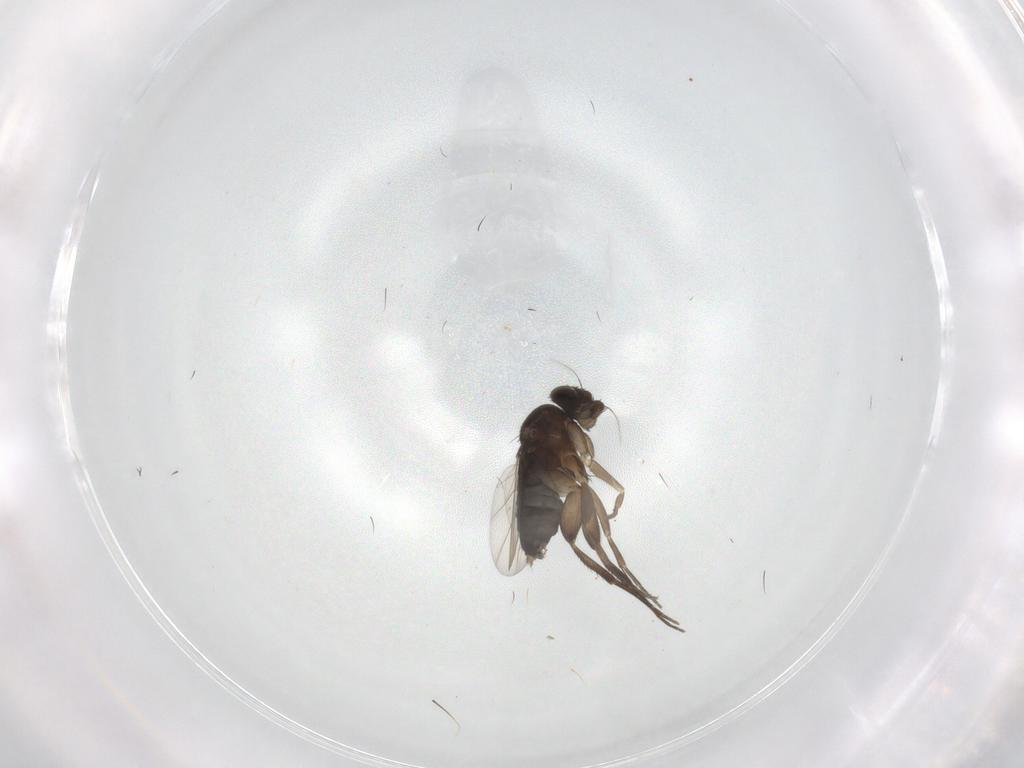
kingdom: Animalia
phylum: Arthropoda
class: Insecta
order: Diptera
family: Phoridae
